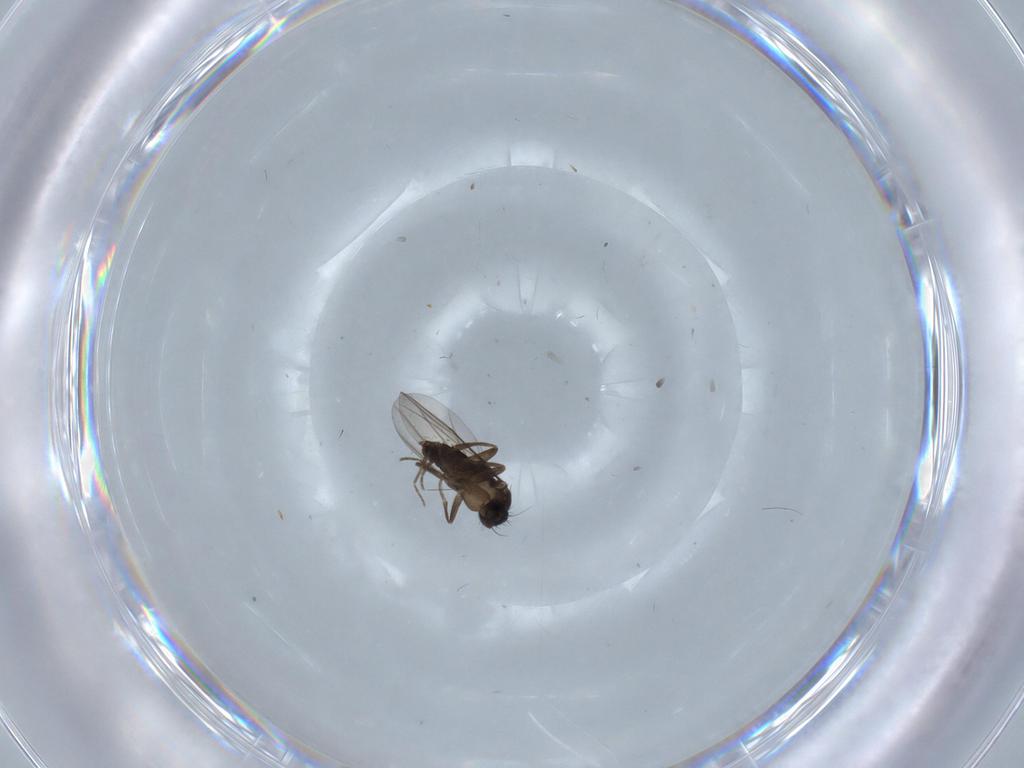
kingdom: Animalia
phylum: Arthropoda
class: Insecta
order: Diptera
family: Phoridae
